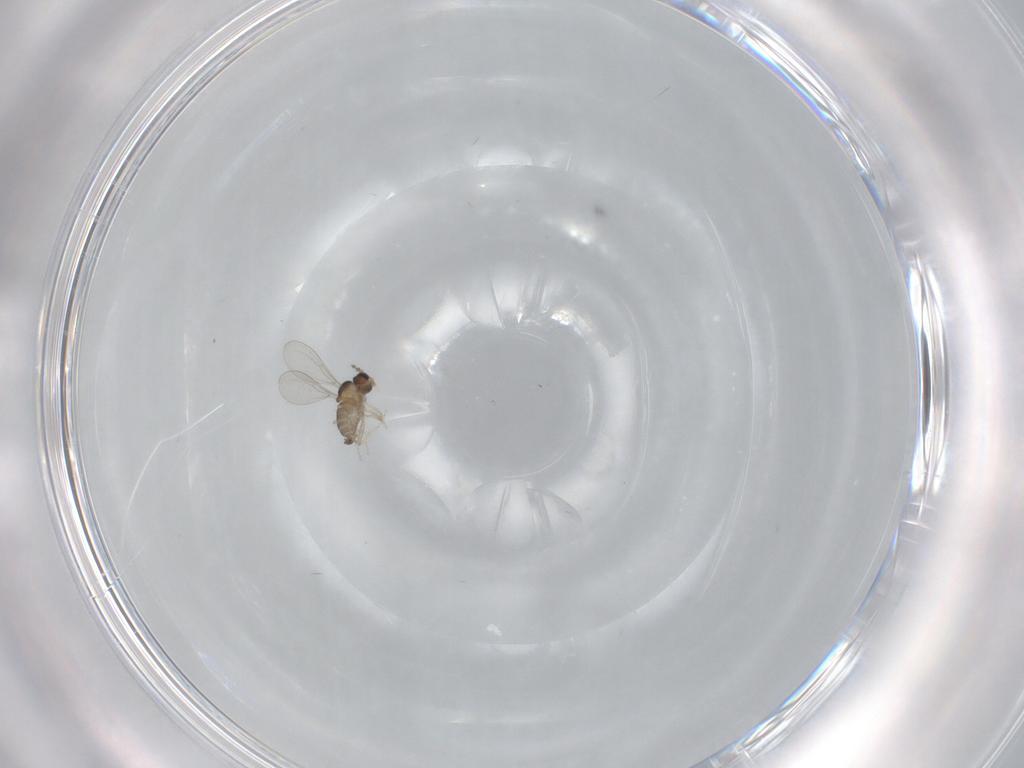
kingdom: Animalia
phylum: Arthropoda
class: Insecta
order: Diptera
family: Cecidomyiidae
